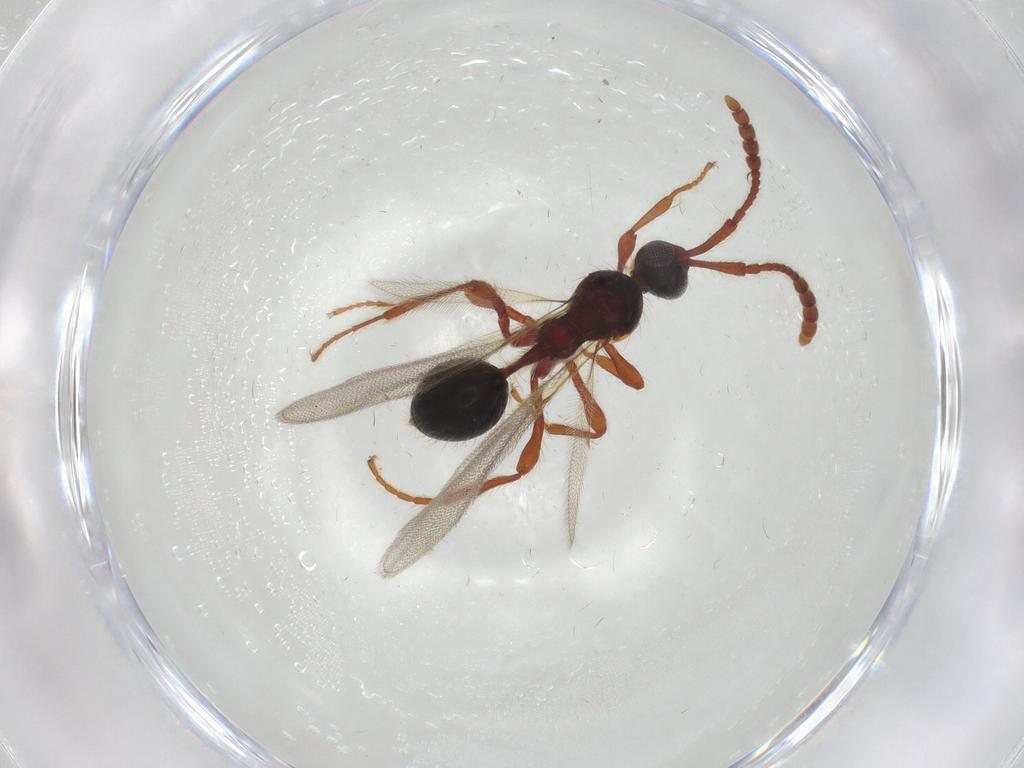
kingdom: Animalia
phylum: Arthropoda
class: Insecta
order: Hymenoptera
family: Diapriidae
